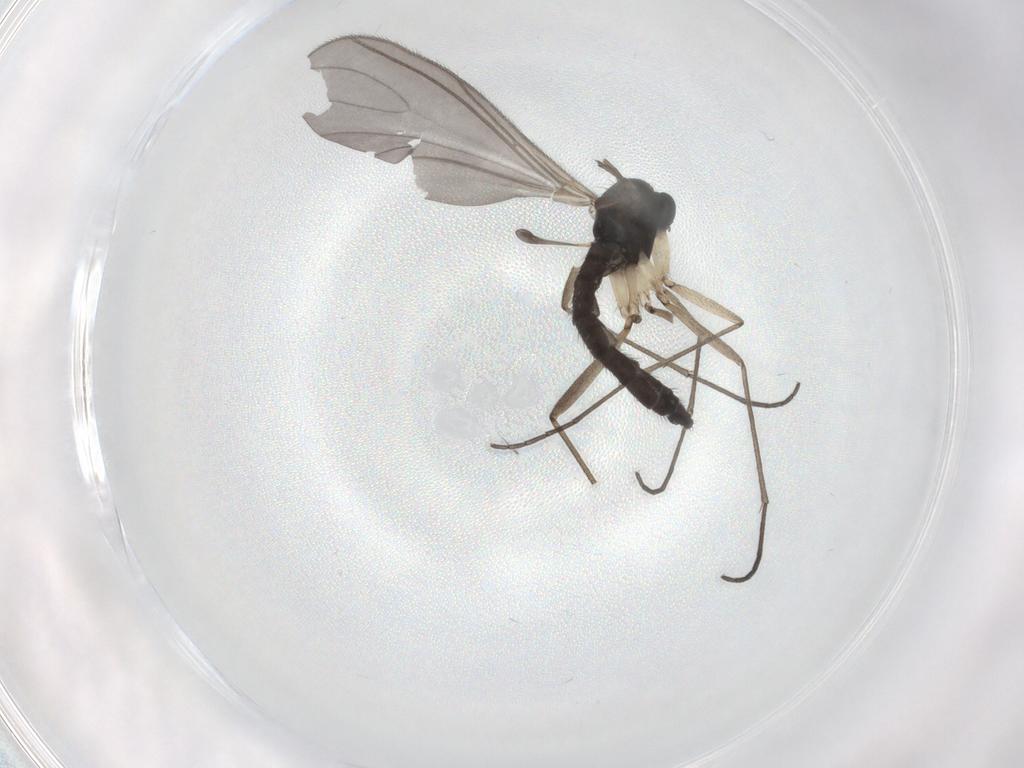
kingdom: Animalia
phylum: Arthropoda
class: Insecta
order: Diptera
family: Sciaridae
